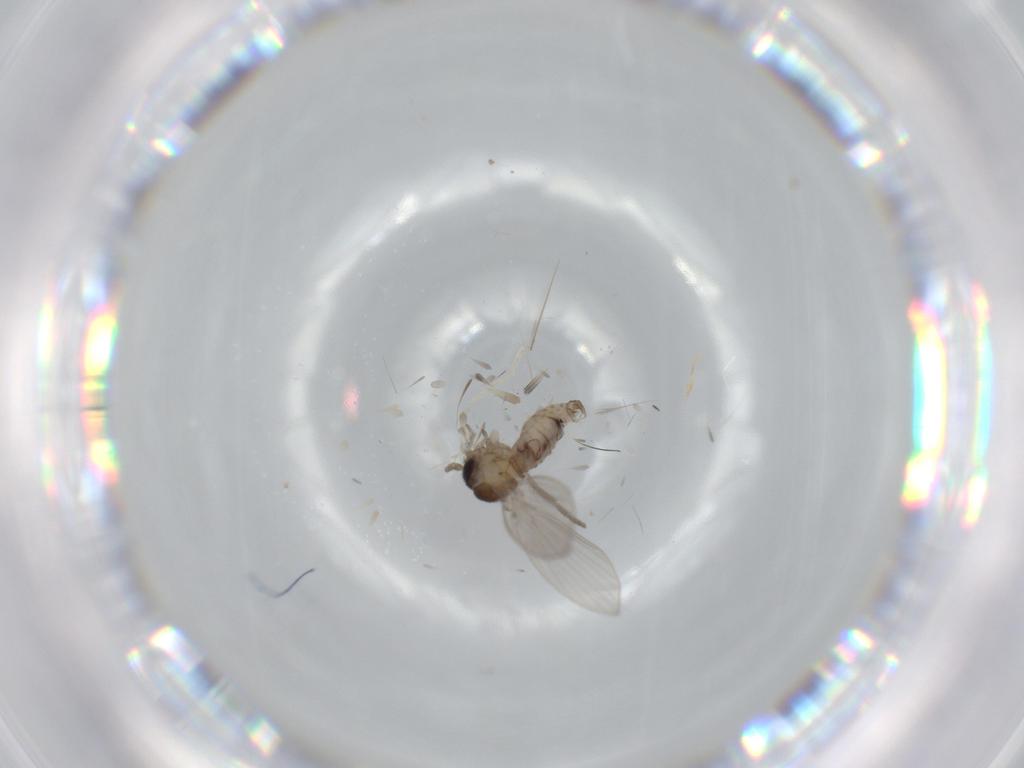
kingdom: Animalia
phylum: Arthropoda
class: Insecta
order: Diptera
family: Psychodidae
